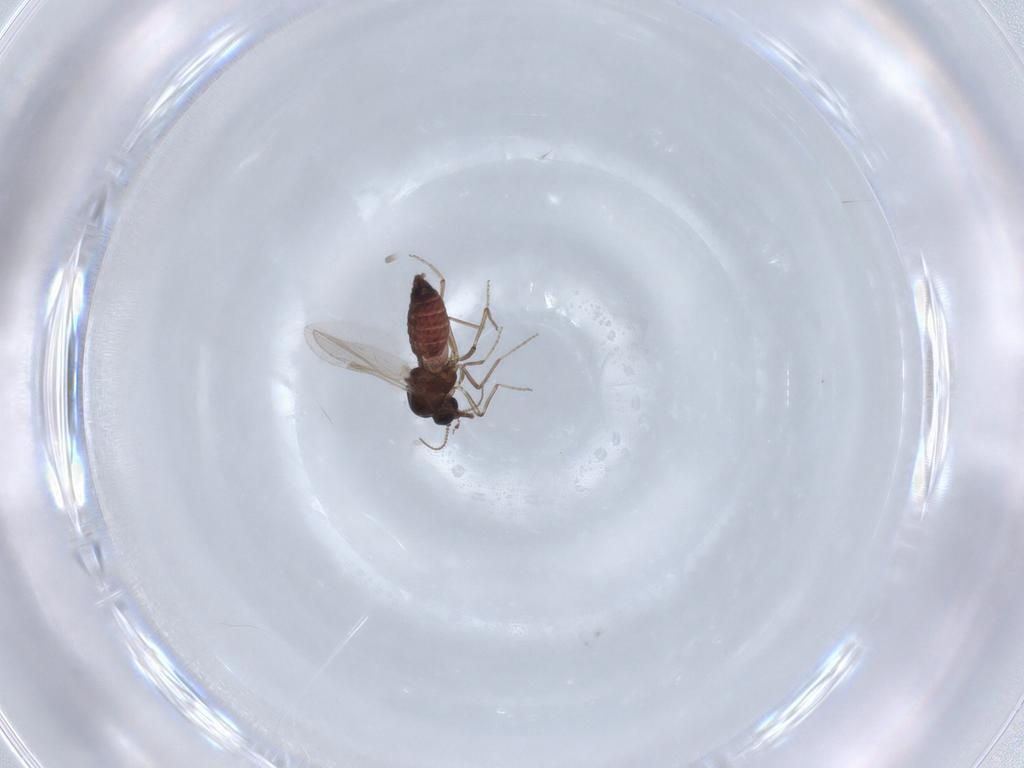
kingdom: Animalia
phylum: Arthropoda
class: Insecta
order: Diptera
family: Ceratopogonidae
